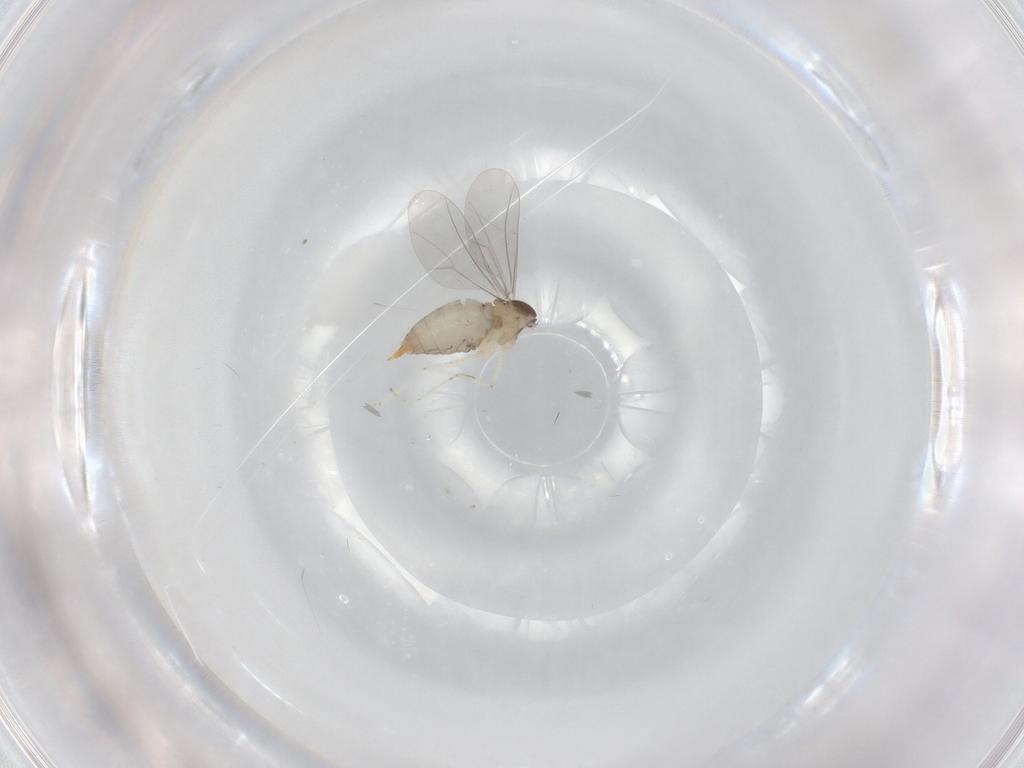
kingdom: Animalia
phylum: Arthropoda
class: Insecta
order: Diptera
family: Cecidomyiidae
